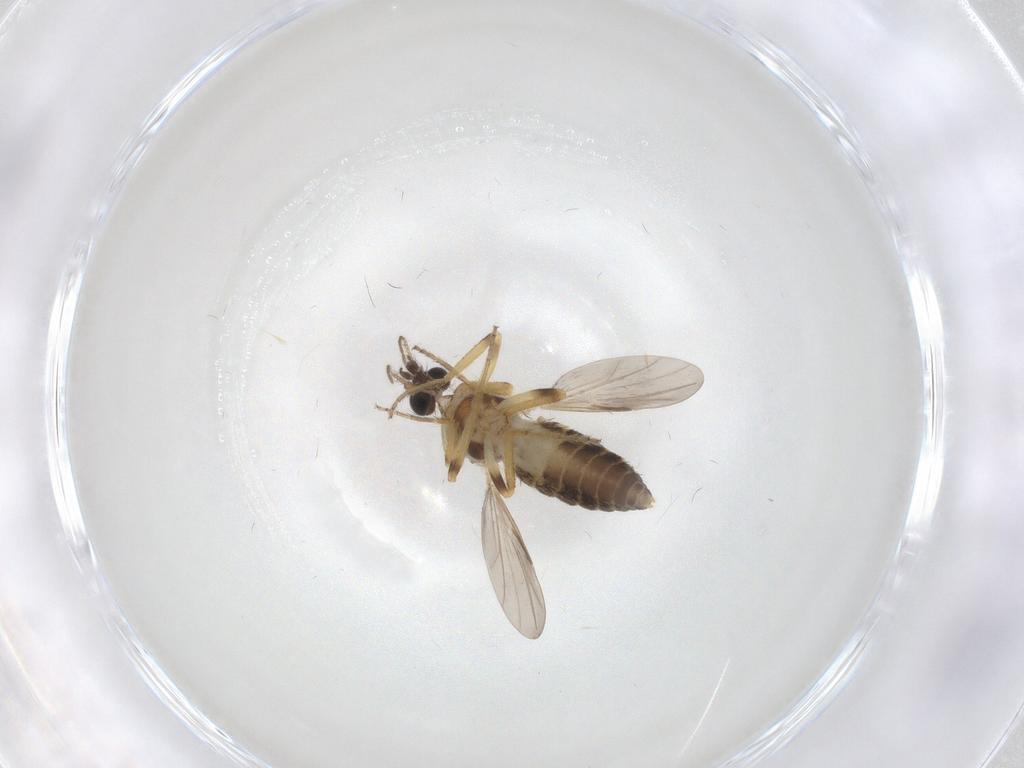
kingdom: Animalia
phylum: Arthropoda
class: Insecta
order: Diptera
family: Ceratopogonidae
